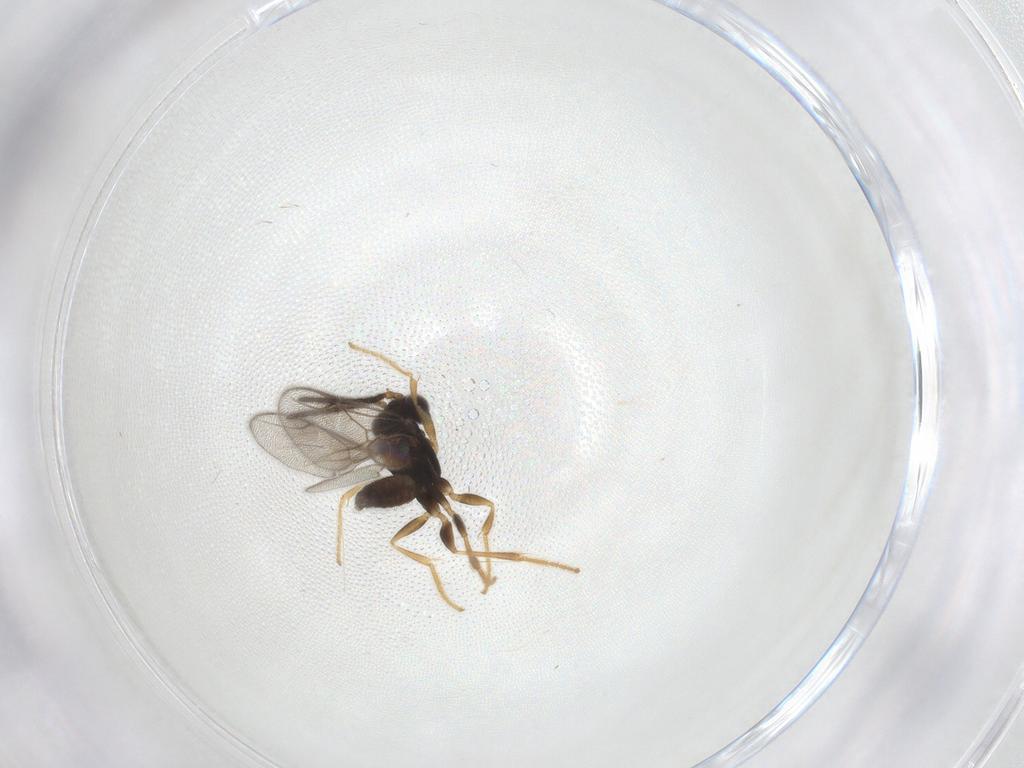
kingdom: Animalia
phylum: Arthropoda
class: Insecta
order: Hymenoptera
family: Dryinidae
